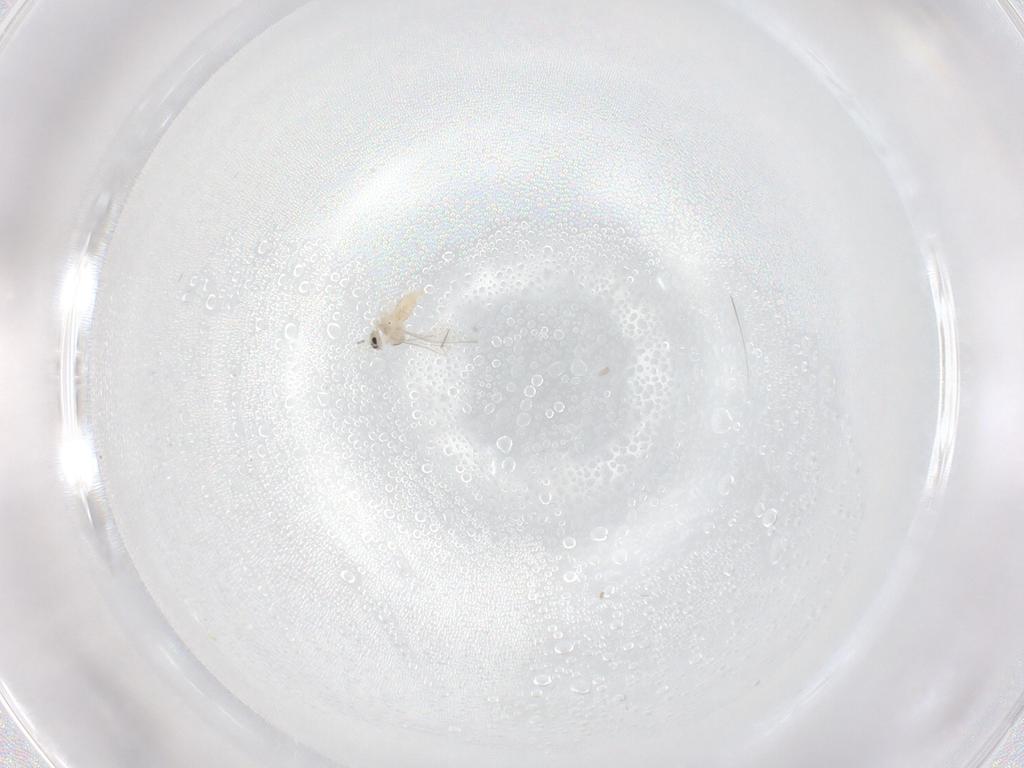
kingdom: Animalia
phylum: Arthropoda
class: Insecta
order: Diptera
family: Cecidomyiidae
